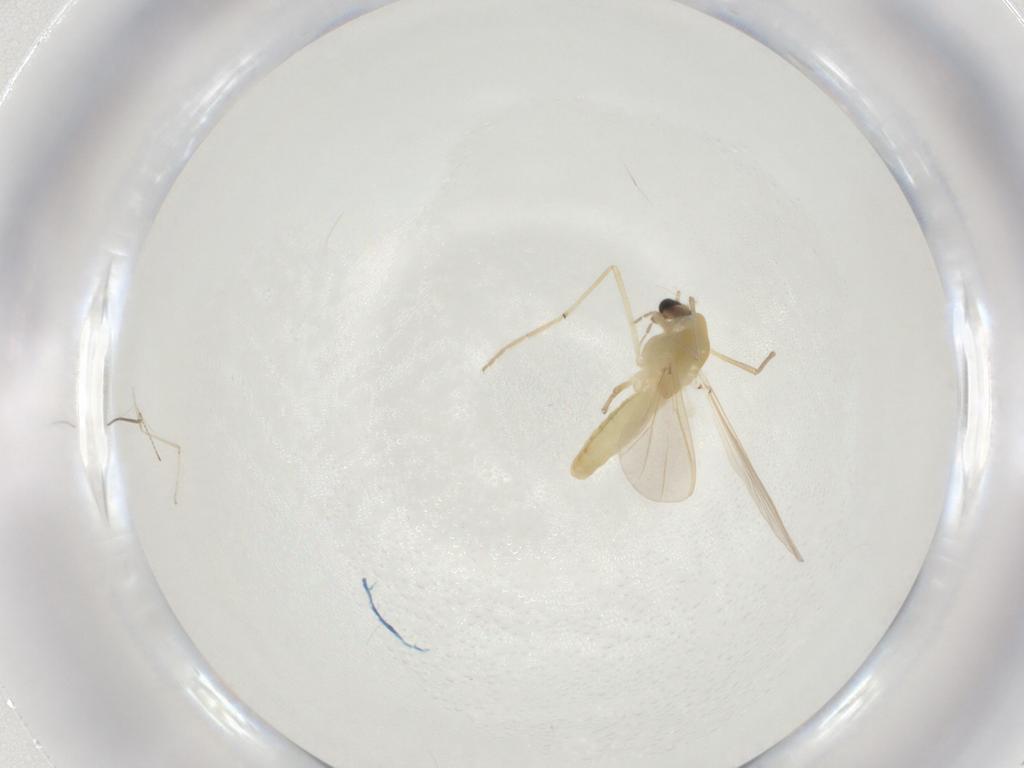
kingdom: Animalia
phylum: Arthropoda
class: Insecta
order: Diptera
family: Chironomidae
